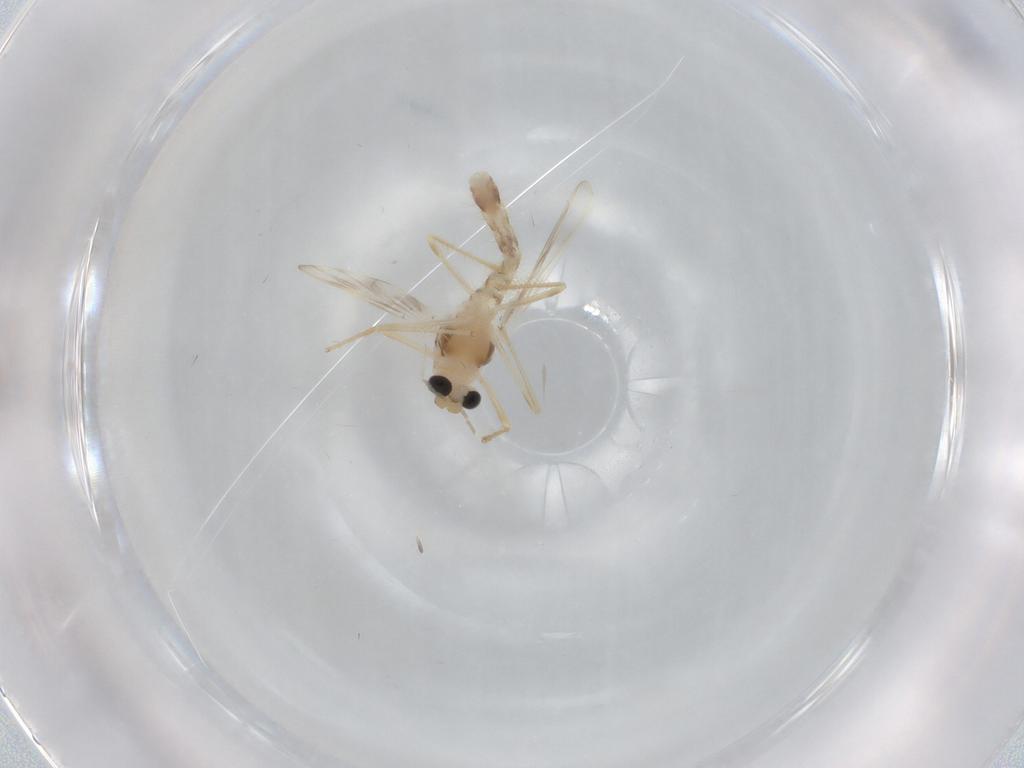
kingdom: Animalia
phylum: Arthropoda
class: Insecta
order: Diptera
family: Chironomidae
